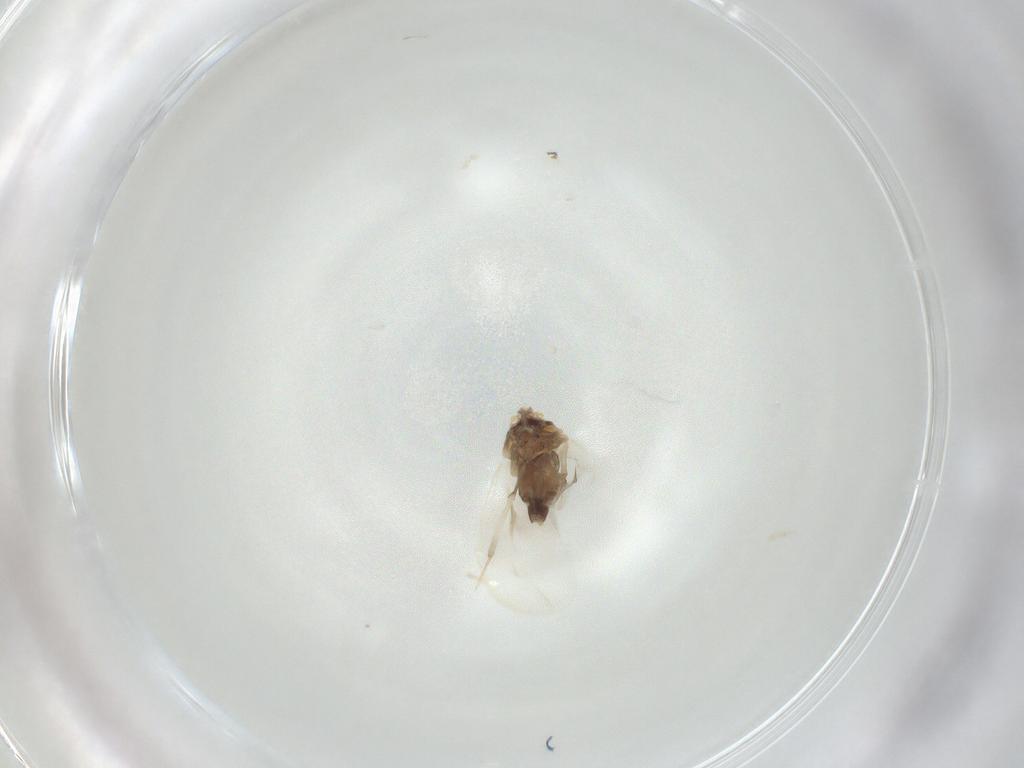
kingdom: Animalia
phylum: Arthropoda
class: Insecta
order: Hemiptera
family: Aleyrodidae
